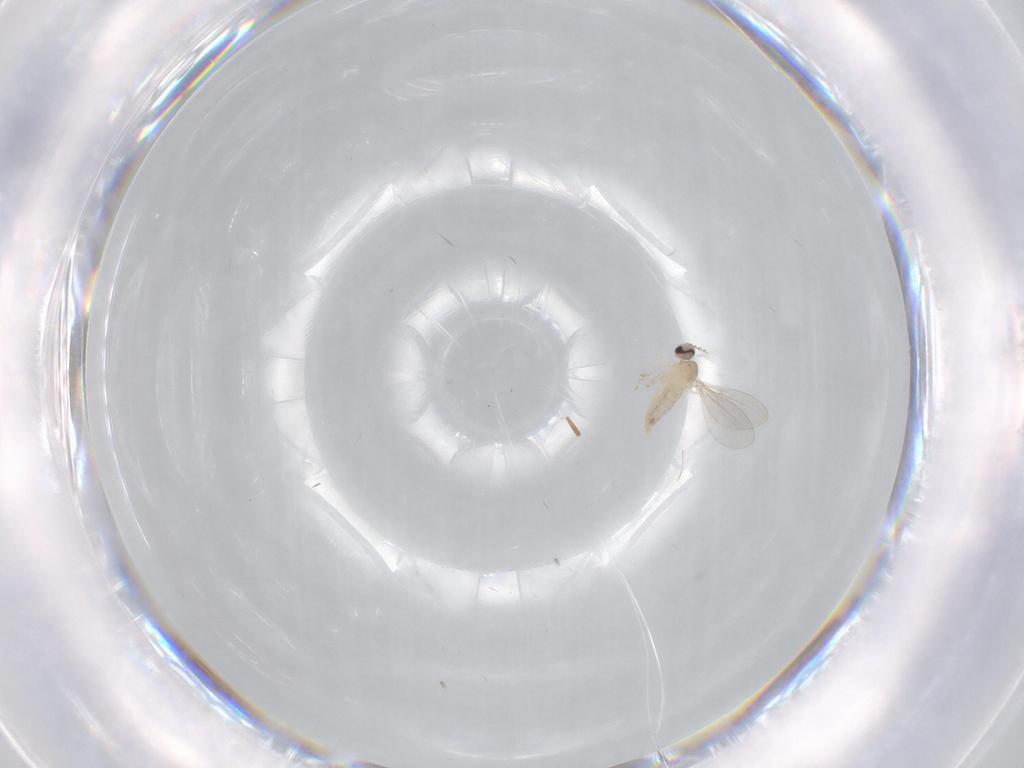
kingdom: Animalia
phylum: Arthropoda
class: Insecta
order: Diptera
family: Cecidomyiidae
